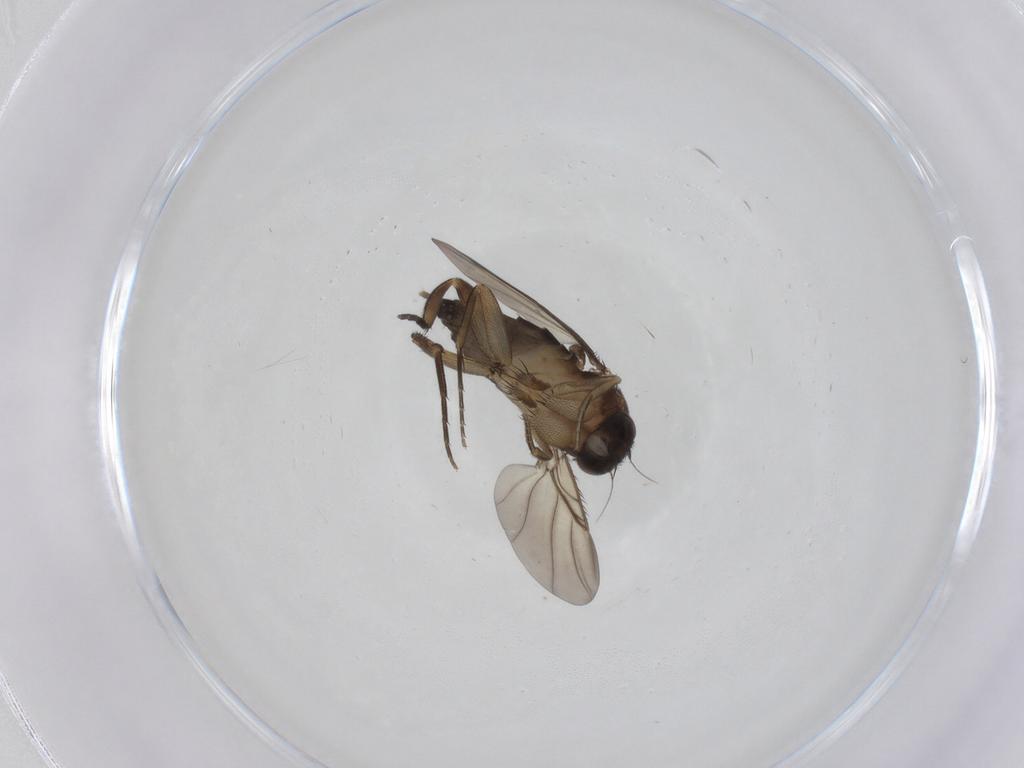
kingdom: Animalia
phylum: Arthropoda
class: Insecta
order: Diptera
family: Phoridae
